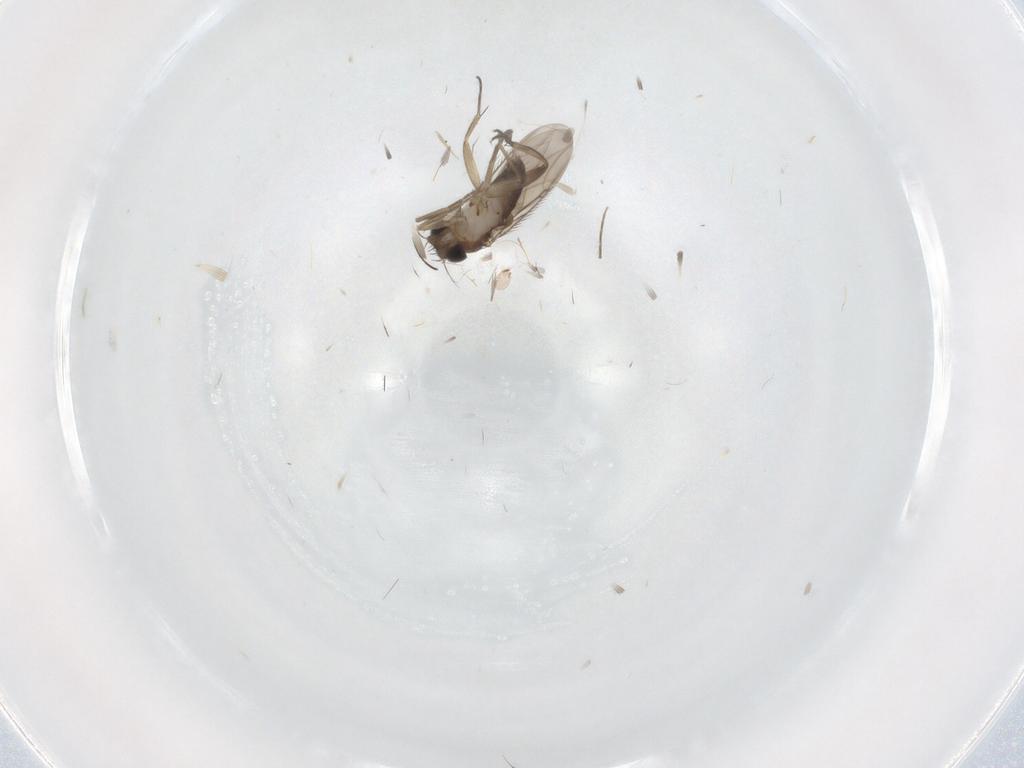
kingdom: Animalia
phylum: Arthropoda
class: Insecta
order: Diptera
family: Phoridae
